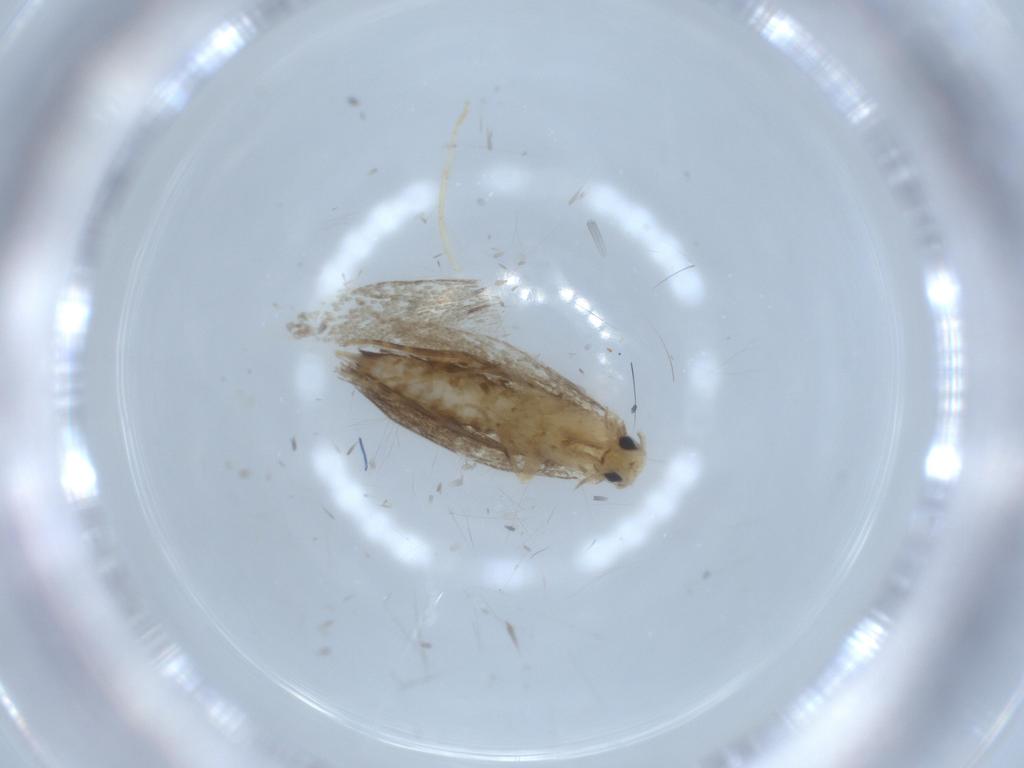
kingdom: Animalia
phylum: Arthropoda
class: Insecta
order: Lepidoptera
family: Tineidae
